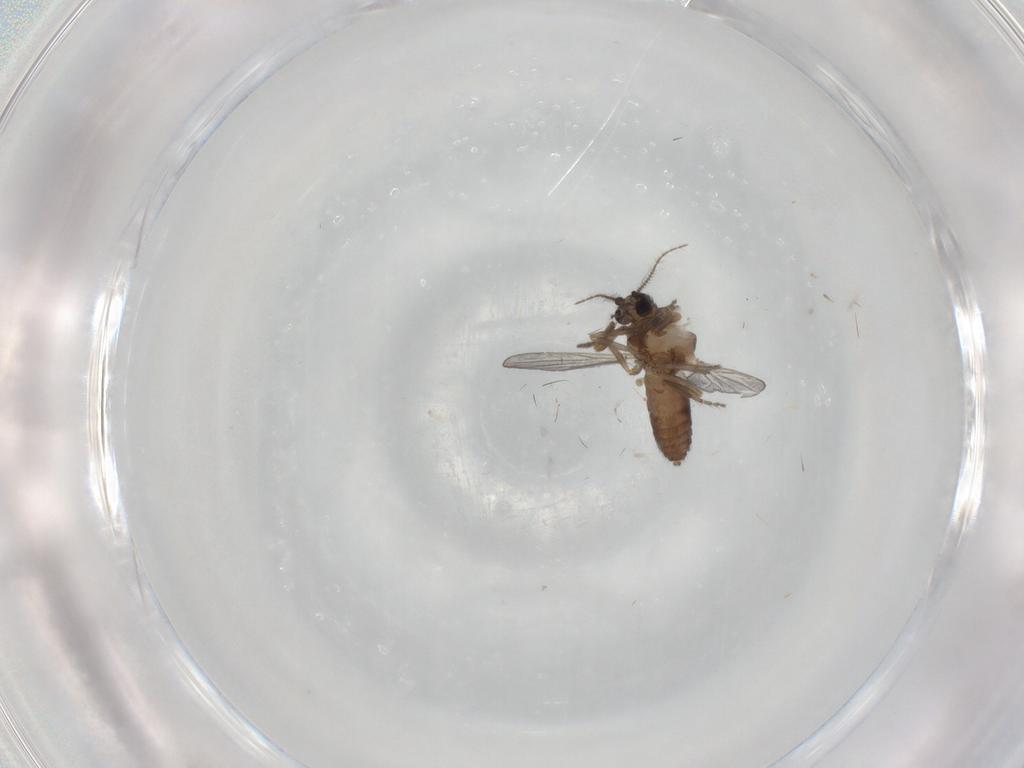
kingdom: Animalia
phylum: Arthropoda
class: Insecta
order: Diptera
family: Ceratopogonidae
